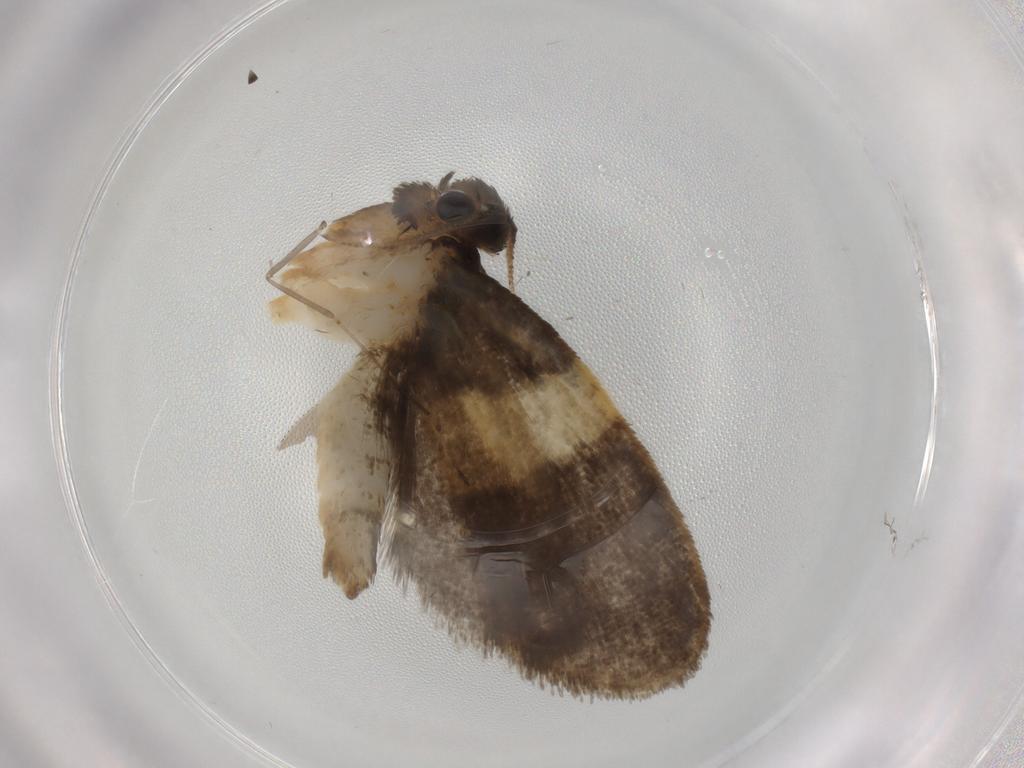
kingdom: Animalia
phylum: Arthropoda
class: Insecta
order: Lepidoptera
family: Psychidae
